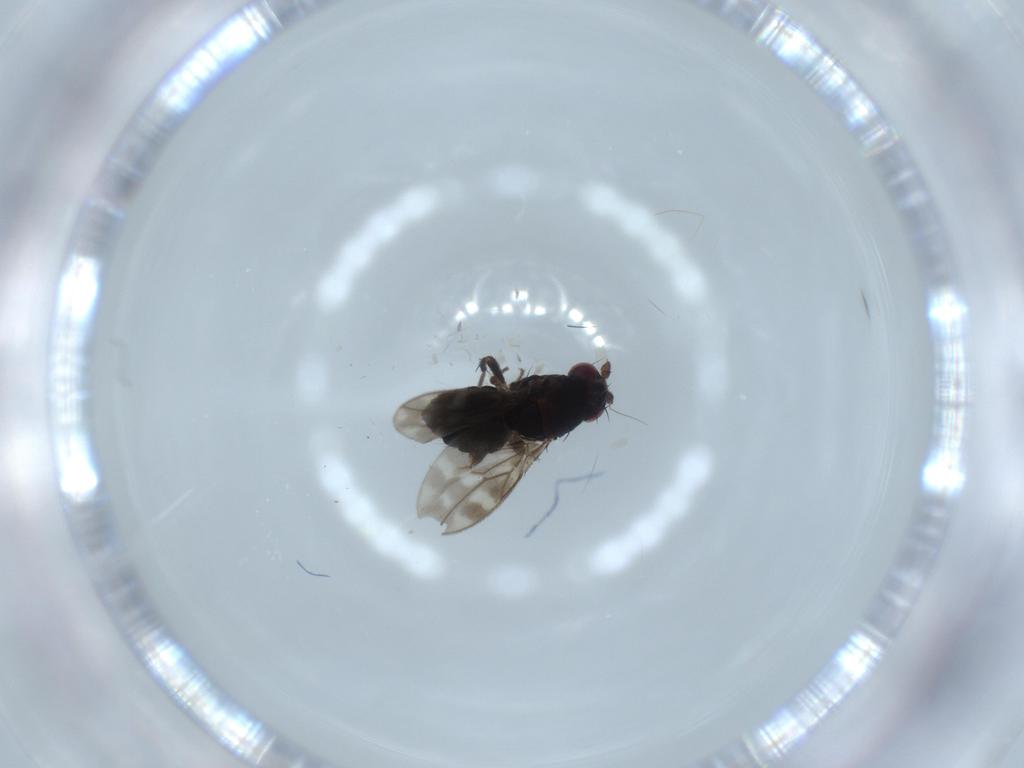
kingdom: Animalia
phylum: Arthropoda
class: Insecta
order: Diptera
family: Sphaeroceridae
